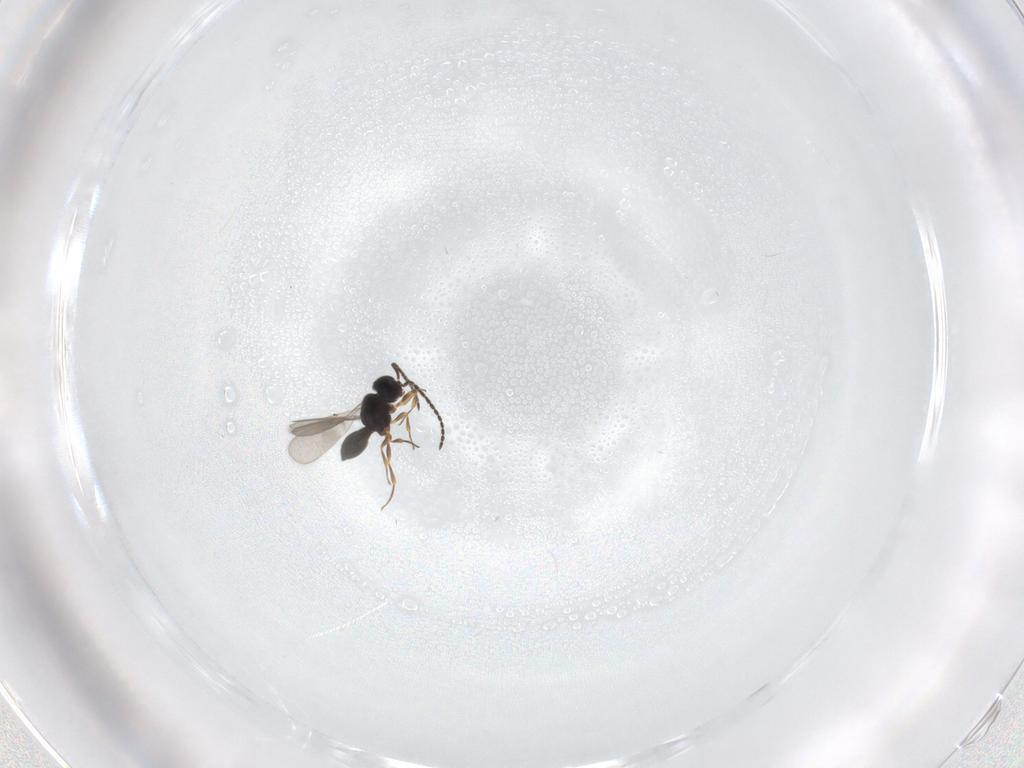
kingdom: Animalia
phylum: Arthropoda
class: Insecta
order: Hymenoptera
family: Scelionidae
